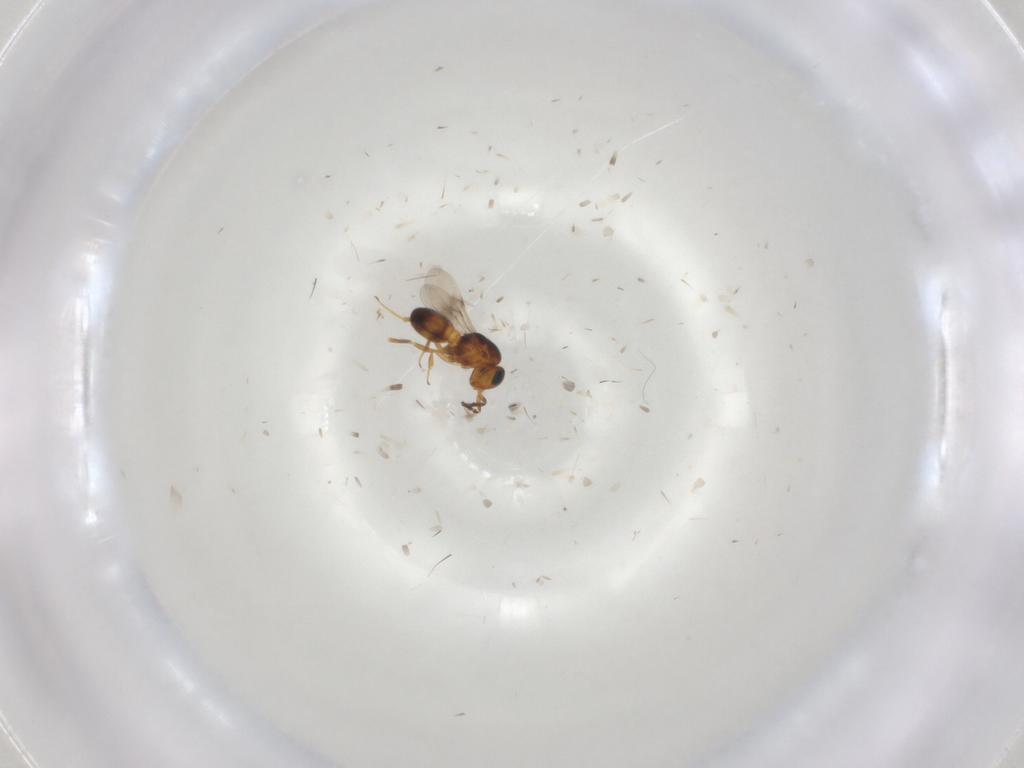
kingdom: Animalia
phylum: Arthropoda
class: Insecta
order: Hymenoptera
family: Scelionidae
